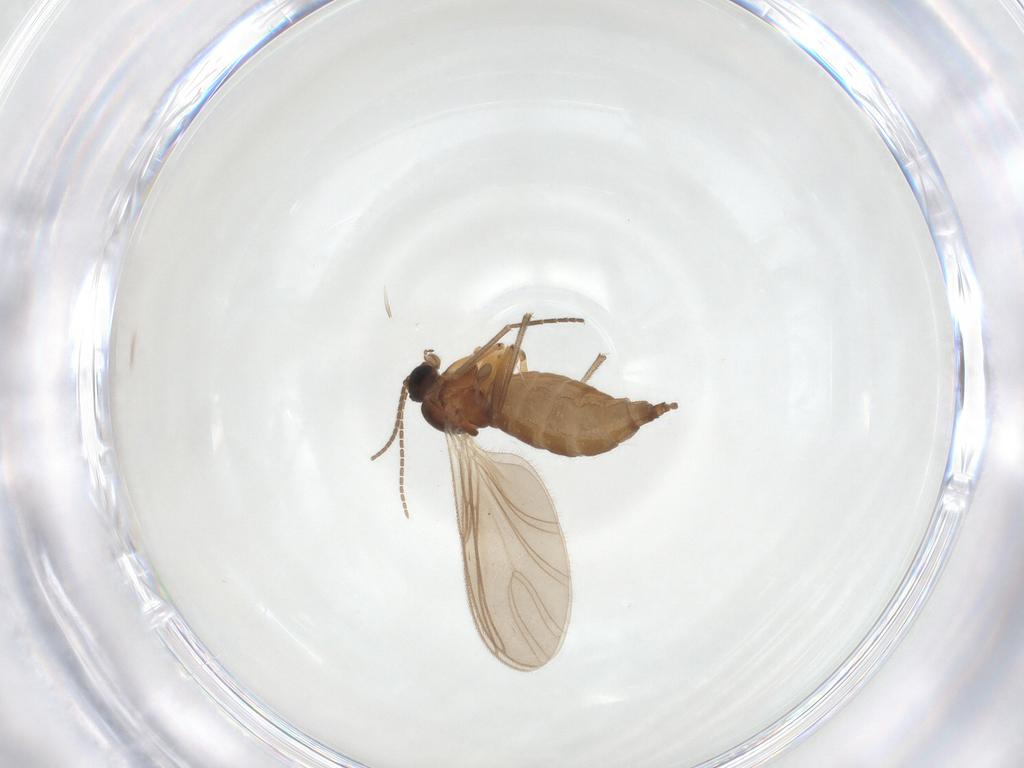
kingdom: Animalia
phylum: Arthropoda
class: Insecta
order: Diptera
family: Sciaridae
